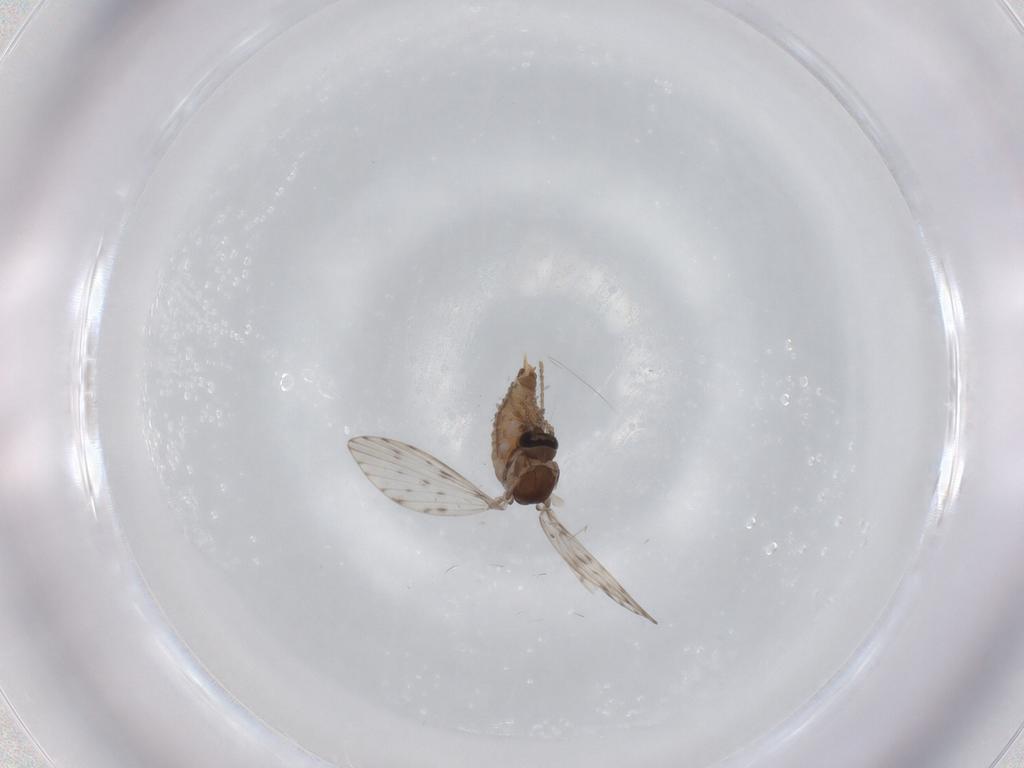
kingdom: Animalia
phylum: Arthropoda
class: Insecta
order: Diptera
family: Psychodidae
